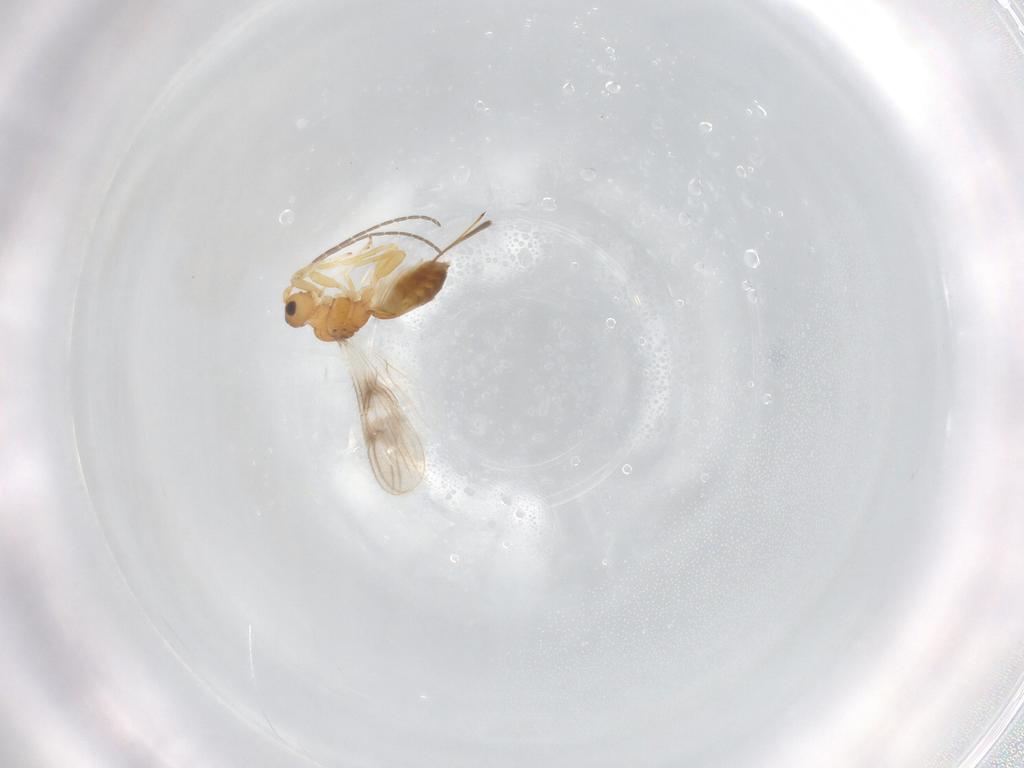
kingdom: Animalia
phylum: Arthropoda
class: Insecta
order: Hymenoptera
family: Braconidae
